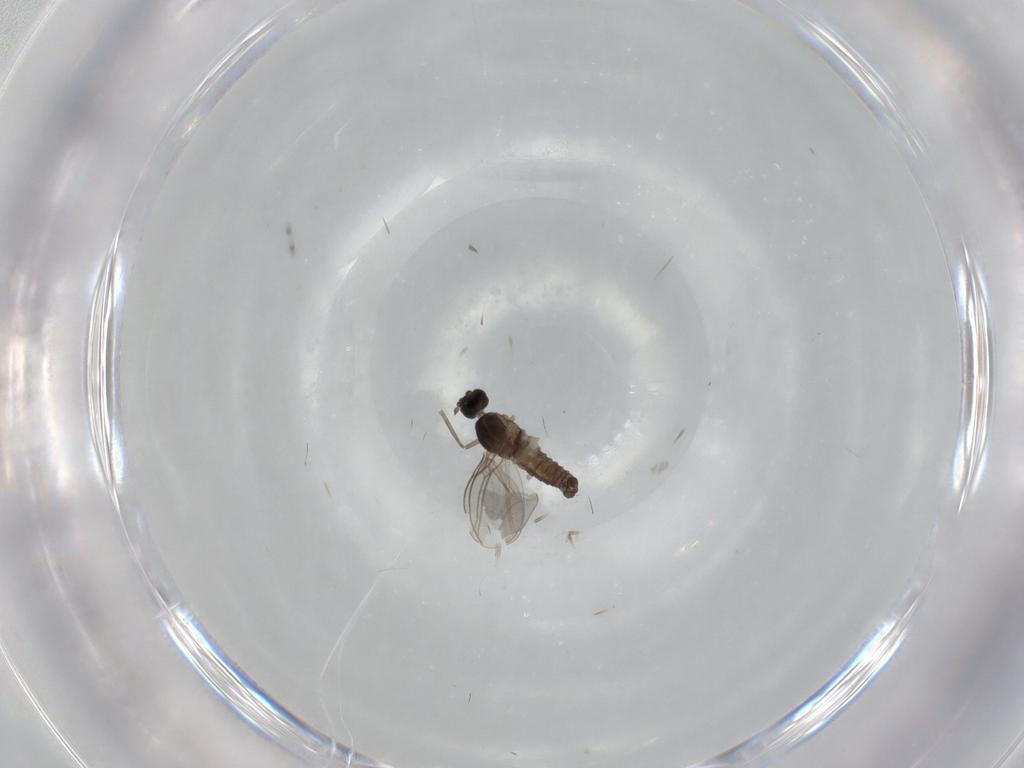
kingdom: Animalia
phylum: Arthropoda
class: Insecta
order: Diptera
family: Cecidomyiidae
